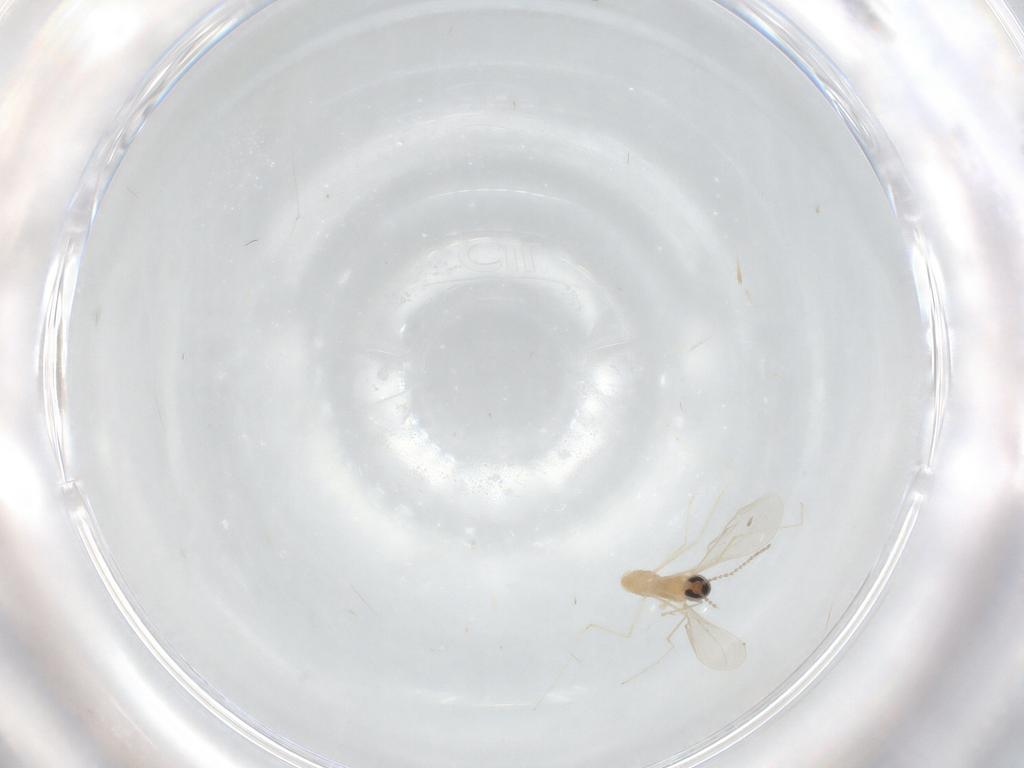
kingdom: Animalia
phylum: Arthropoda
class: Insecta
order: Diptera
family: Cecidomyiidae
